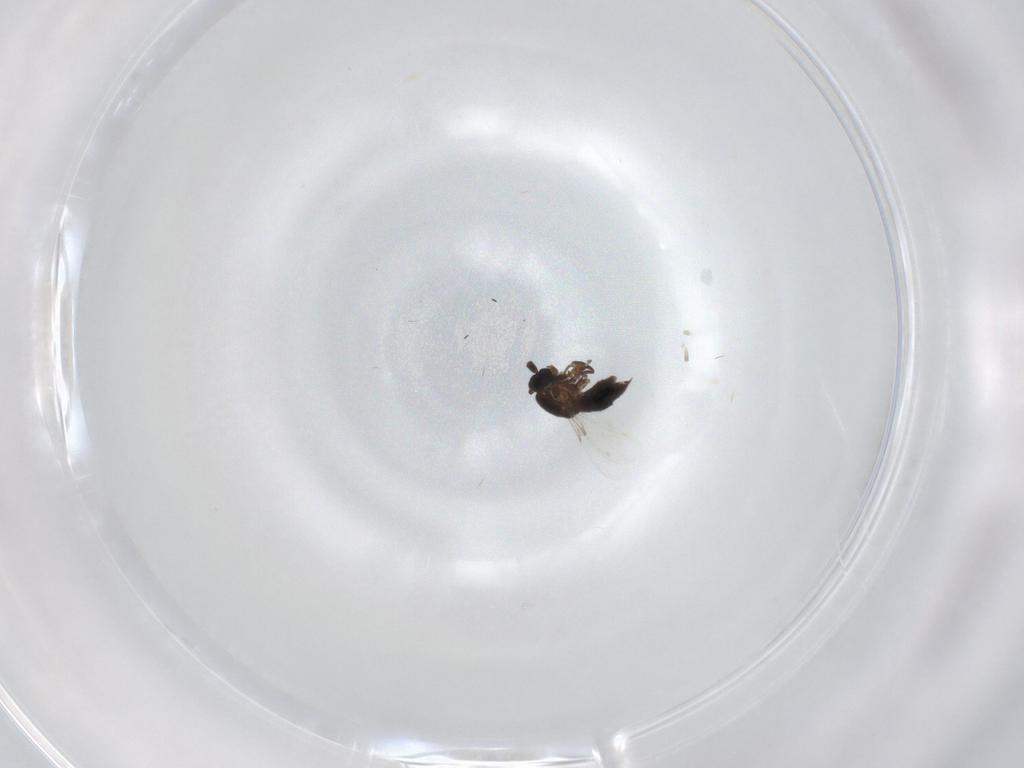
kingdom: Animalia
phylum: Arthropoda
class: Insecta
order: Diptera
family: Scatopsidae
